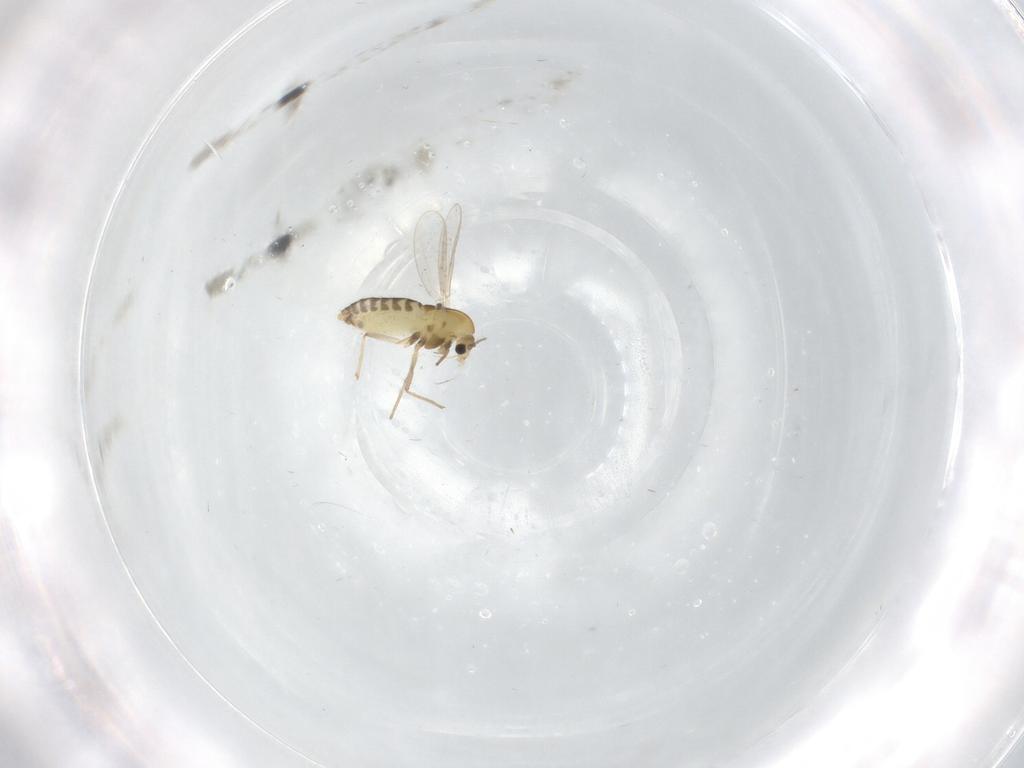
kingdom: Animalia
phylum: Arthropoda
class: Insecta
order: Diptera
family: Chironomidae
